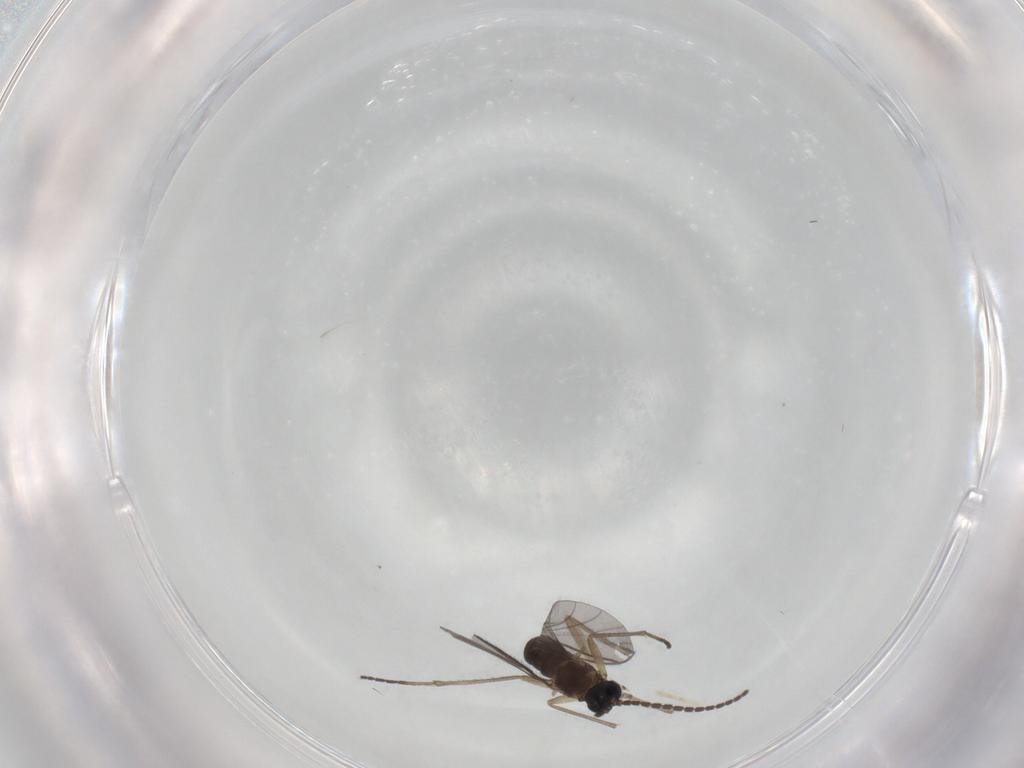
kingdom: Animalia
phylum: Arthropoda
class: Insecta
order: Diptera
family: Sciaridae
